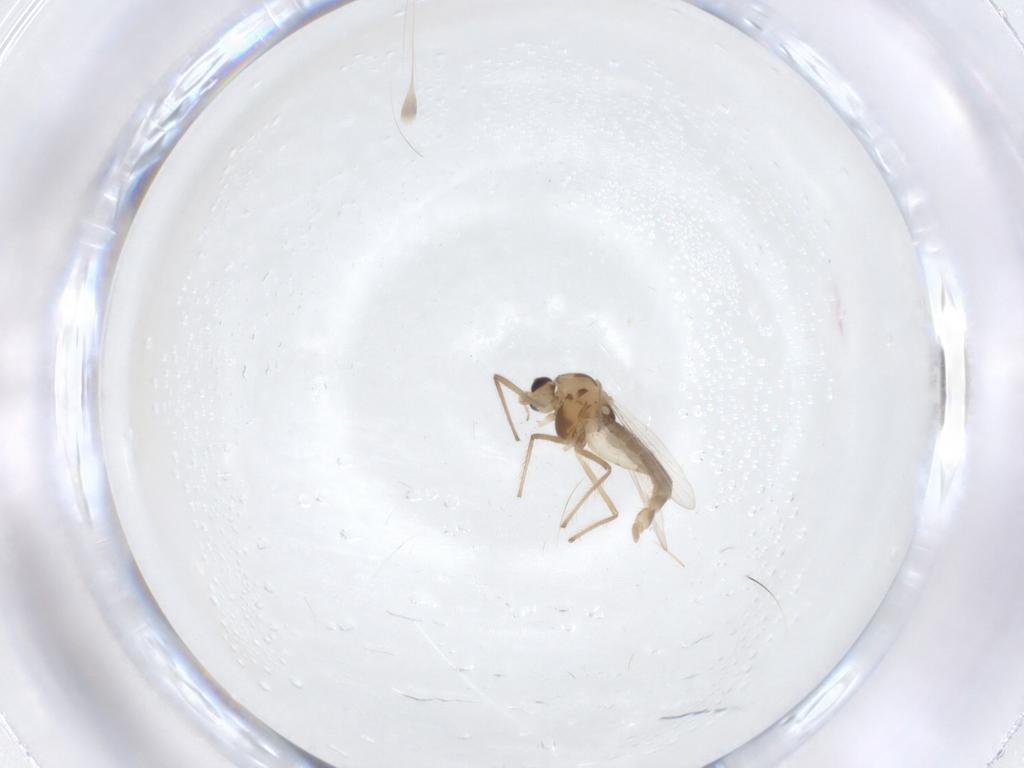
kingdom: Animalia
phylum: Arthropoda
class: Insecta
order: Diptera
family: Chironomidae
